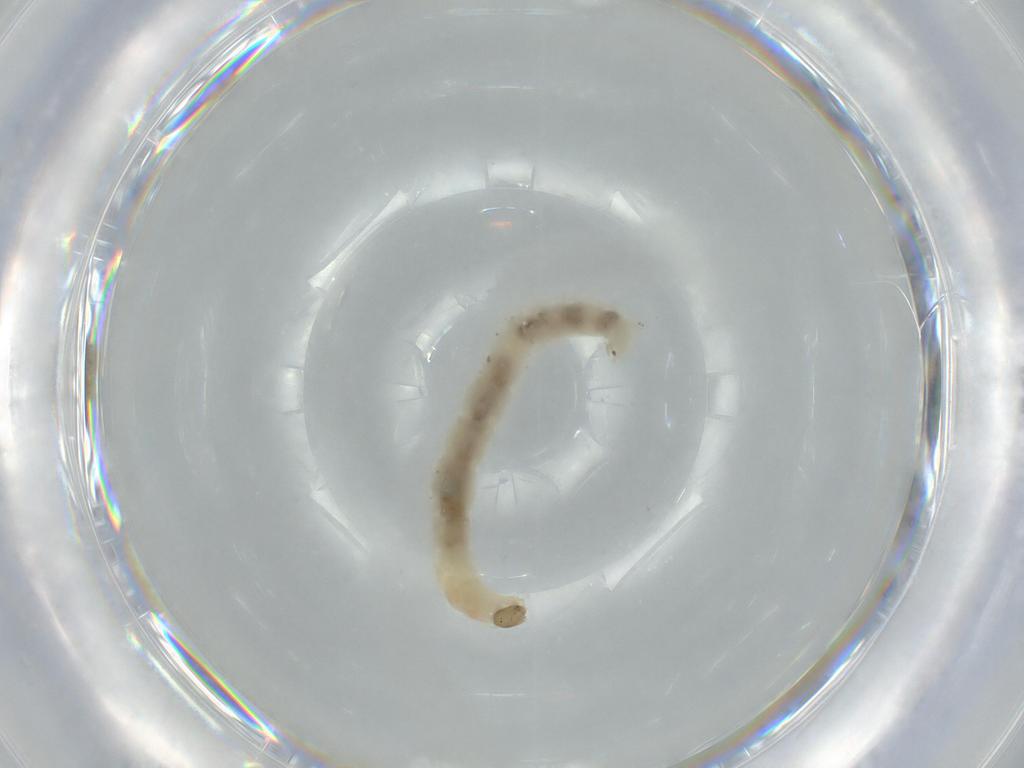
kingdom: Animalia
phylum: Arthropoda
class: Insecta
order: Diptera
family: Chironomidae
